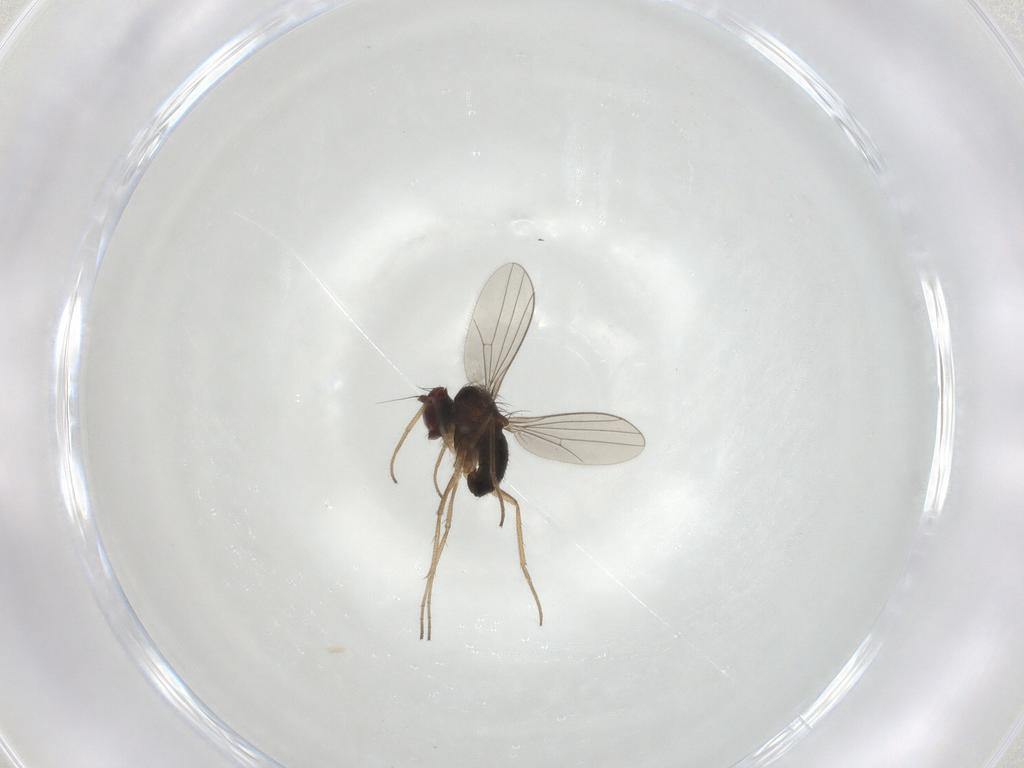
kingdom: Animalia
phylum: Arthropoda
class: Insecta
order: Diptera
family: Dolichopodidae
